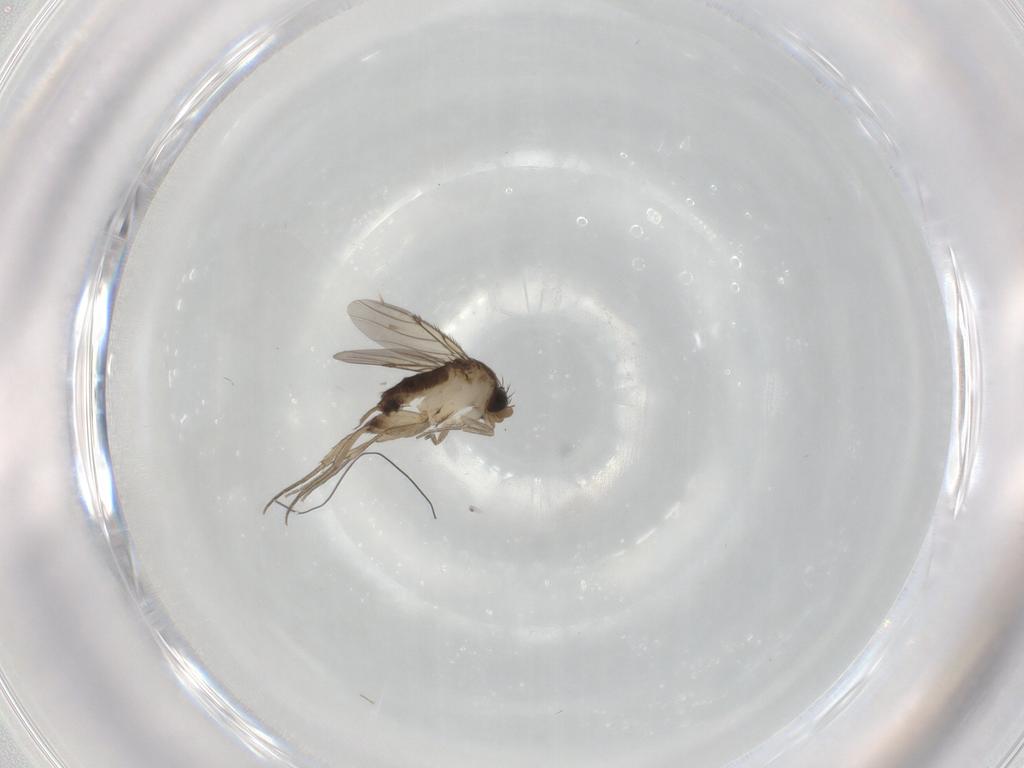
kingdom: Animalia
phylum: Arthropoda
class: Insecta
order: Diptera
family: Phoridae
